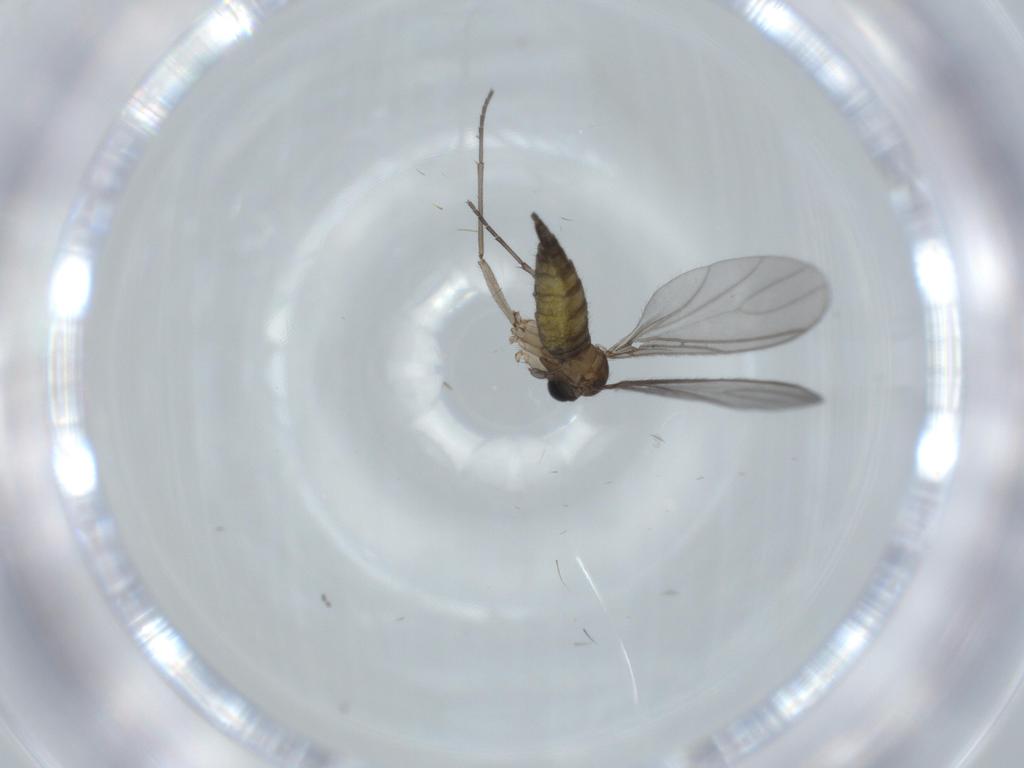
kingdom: Animalia
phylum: Arthropoda
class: Insecta
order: Diptera
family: Sciaridae
